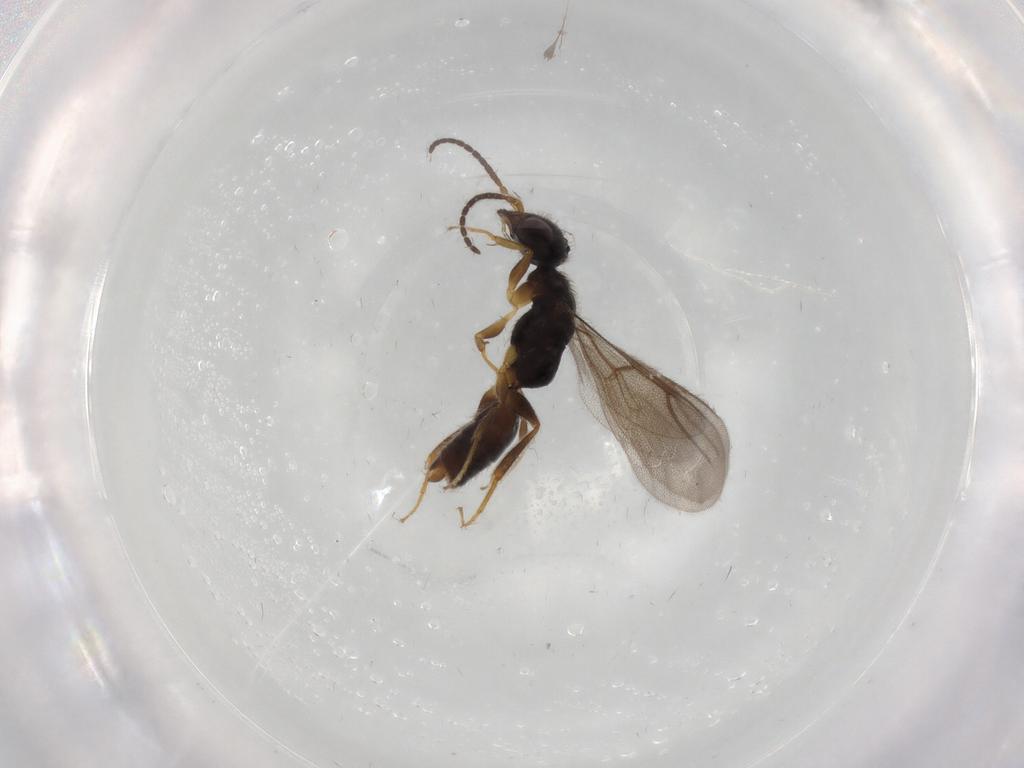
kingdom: Animalia
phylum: Arthropoda
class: Insecta
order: Hymenoptera
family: Bethylidae
